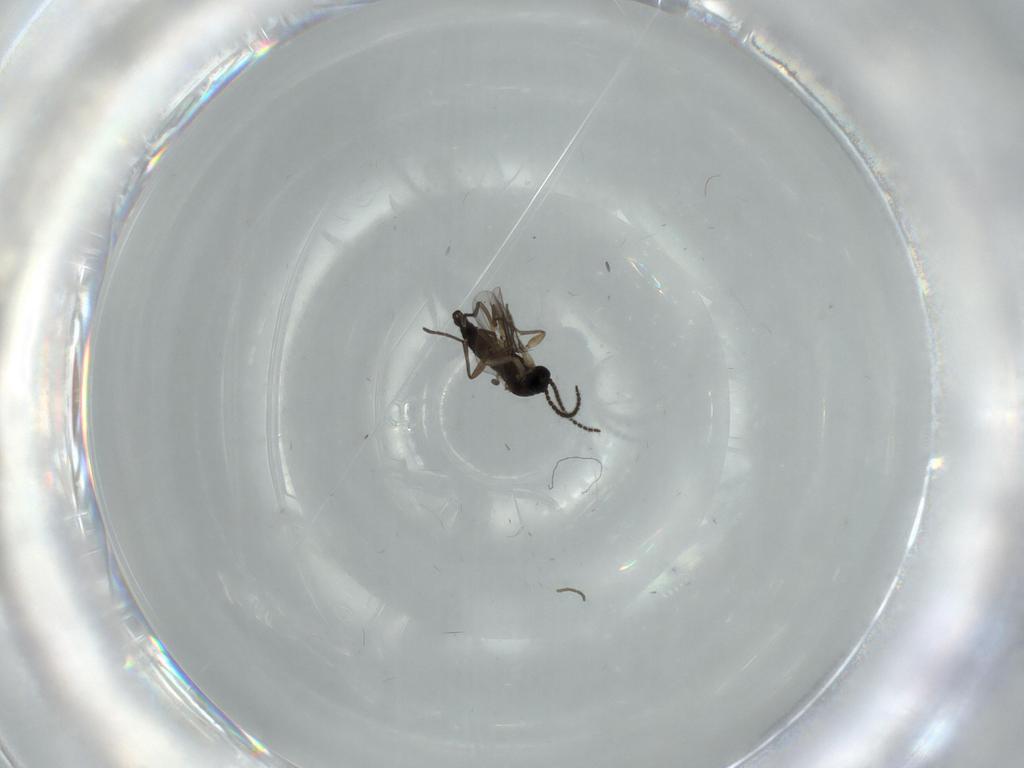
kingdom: Animalia
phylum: Arthropoda
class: Insecta
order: Diptera
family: Sciaridae
